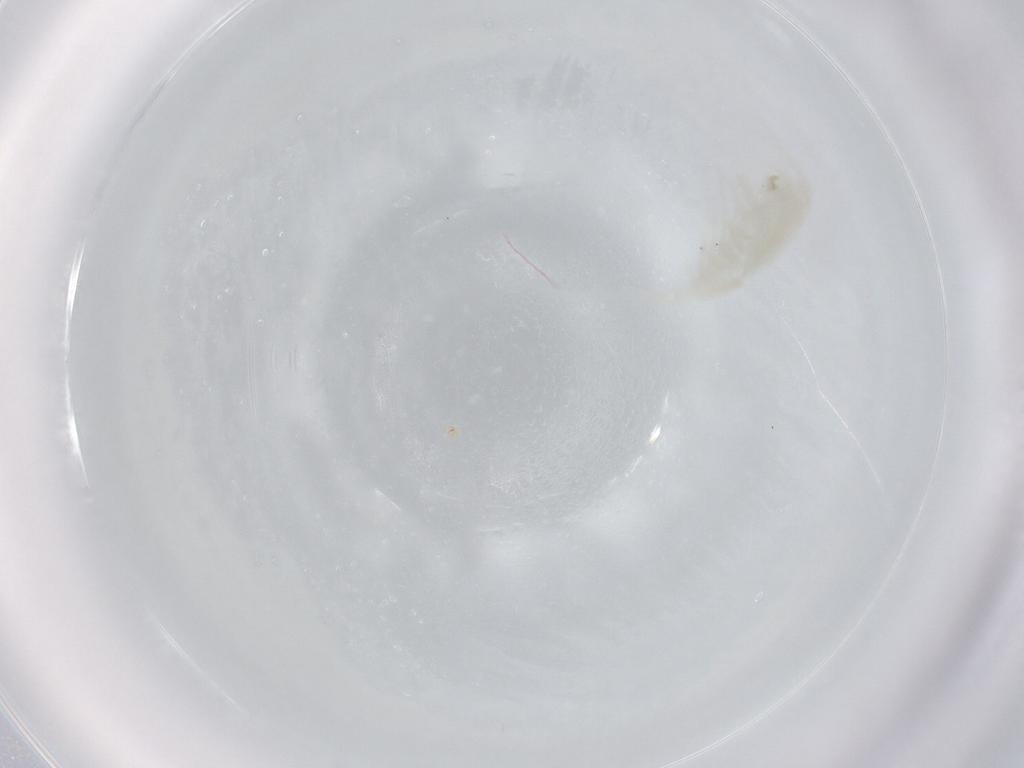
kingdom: Animalia
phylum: Arthropoda
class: Copepoda
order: Calanoida
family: Centropagidae
